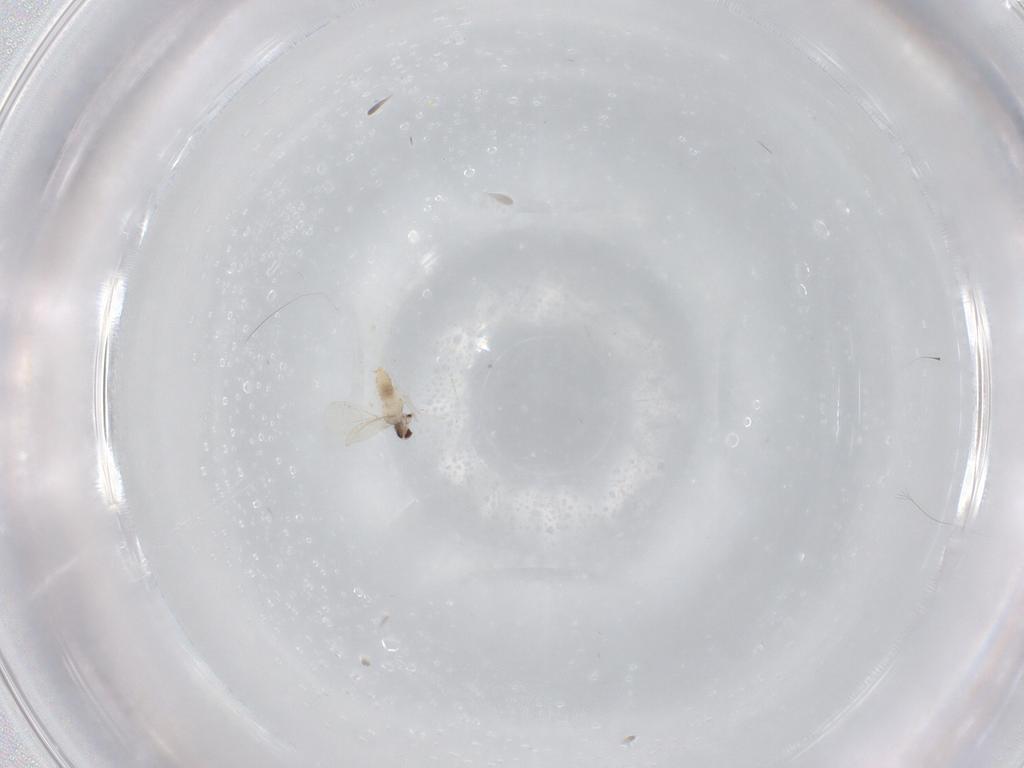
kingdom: Animalia
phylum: Arthropoda
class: Insecta
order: Diptera
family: Cecidomyiidae
